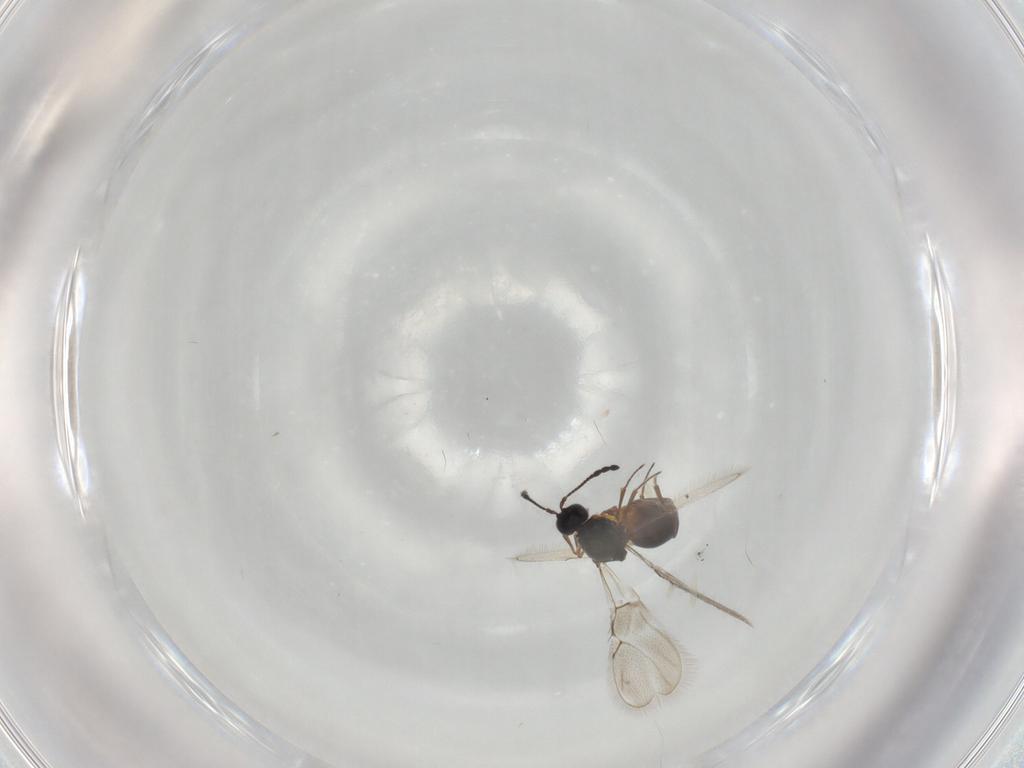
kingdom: Animalia
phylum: Arthropoda
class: Insecta
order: Hymenoptera
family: Figitidae
